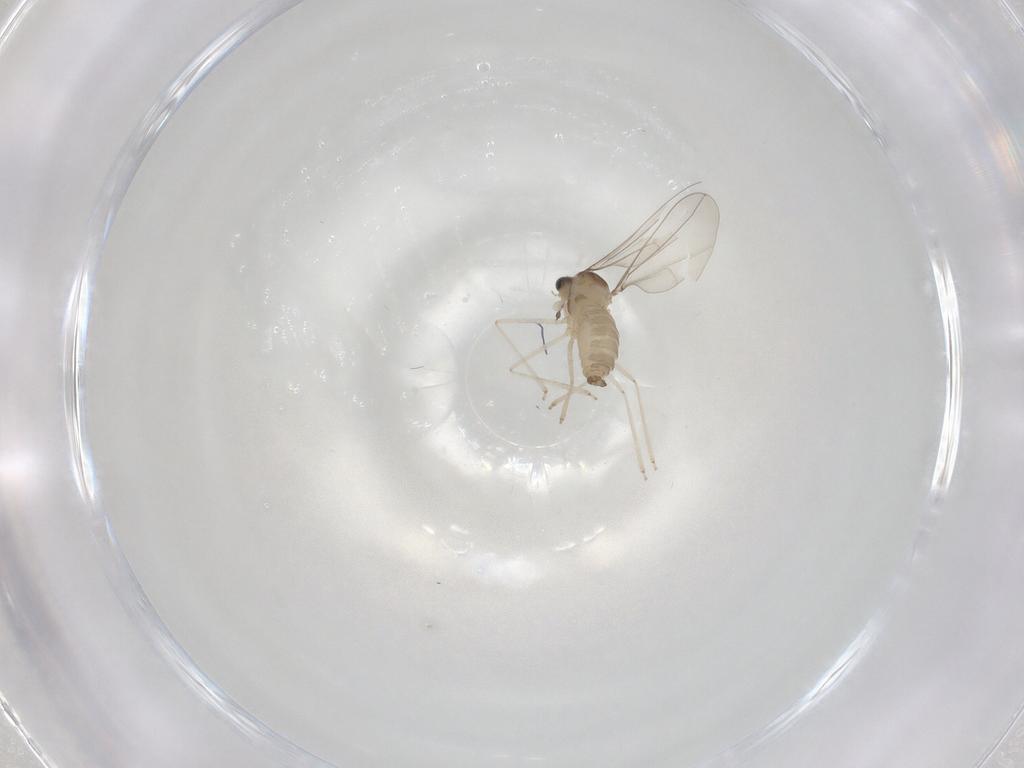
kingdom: Animalia
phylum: Arthropoda
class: Insecta
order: Diptera
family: Cecidomyiidae
